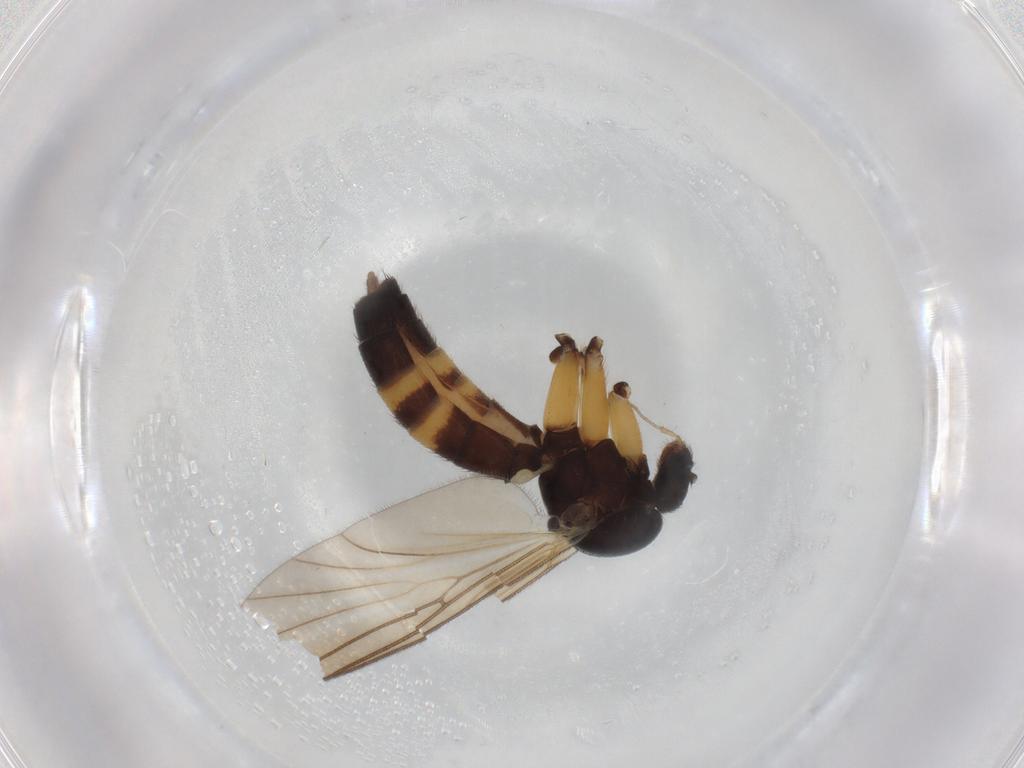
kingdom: Animalia
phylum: Arthropoda
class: Insecta
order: Diptera
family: Mycetophilidae
